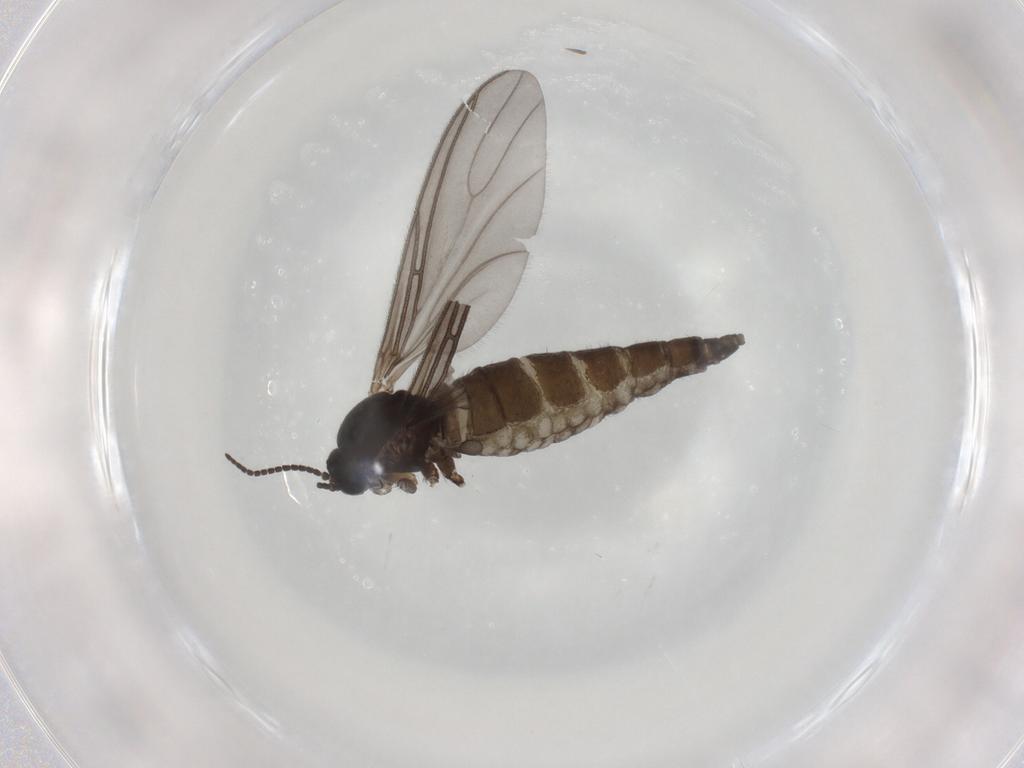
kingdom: Animalia
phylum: Arthropoda
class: Insecta
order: Diptera
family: Sciaridae
